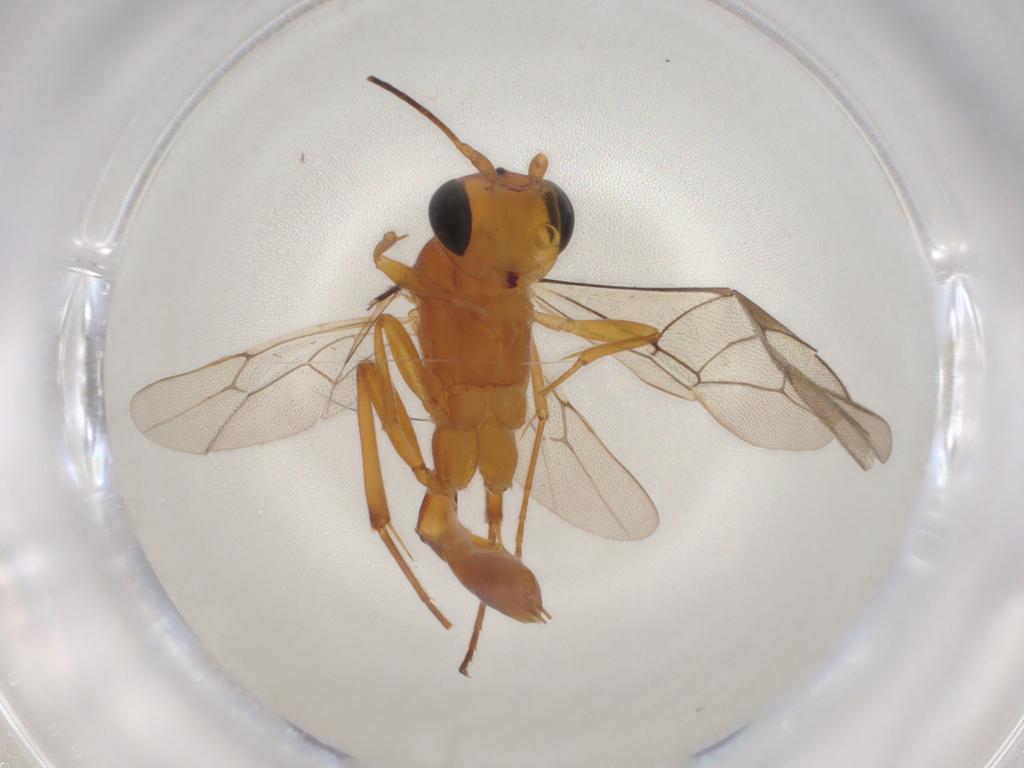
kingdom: Animalia
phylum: Arthropoda
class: Insecta
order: Hymenoptera
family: Ichneumonidae
